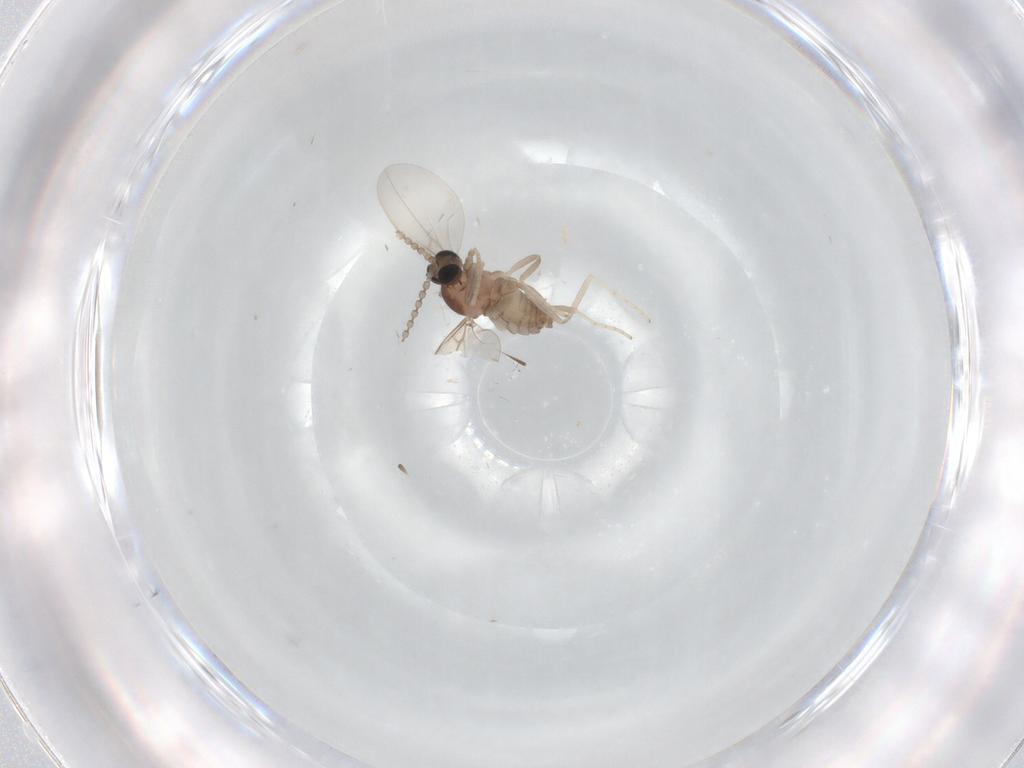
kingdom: Animalia
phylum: Arthropoda
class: Insecta
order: Diptera
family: Cecidomyiidae
